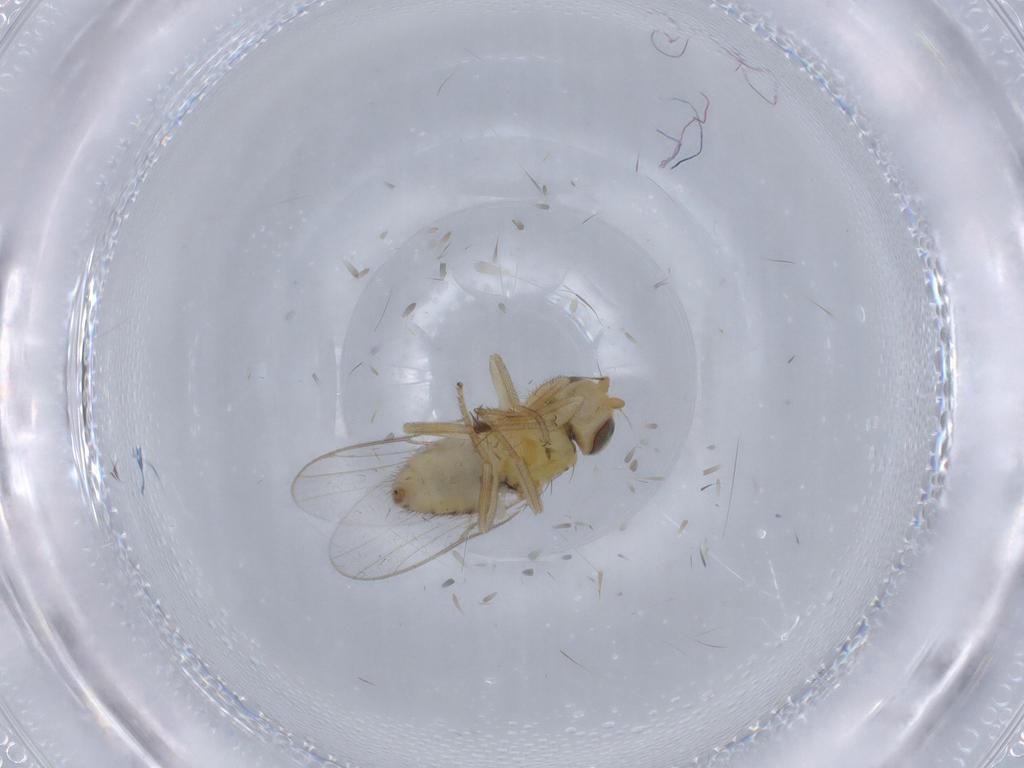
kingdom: Animalia
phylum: Arthropoda
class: Insecta
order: Diptera
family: Chloropidae
